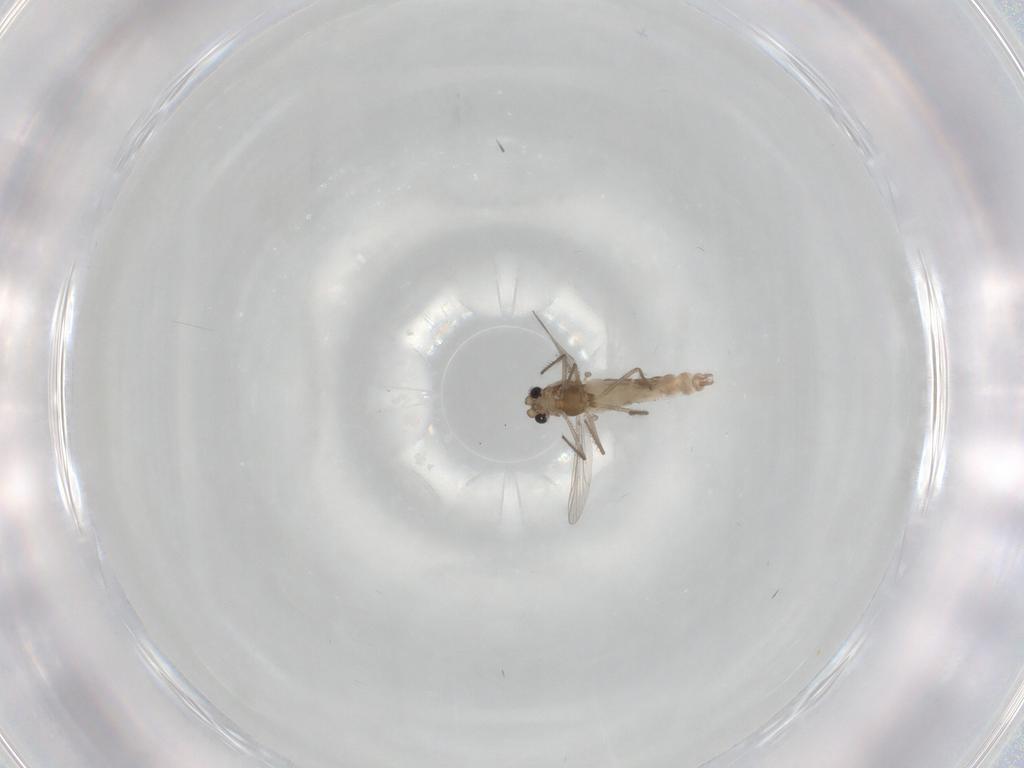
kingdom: Animalia
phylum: Arthropoda
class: Insecta
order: Diptera
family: Chironomidae
